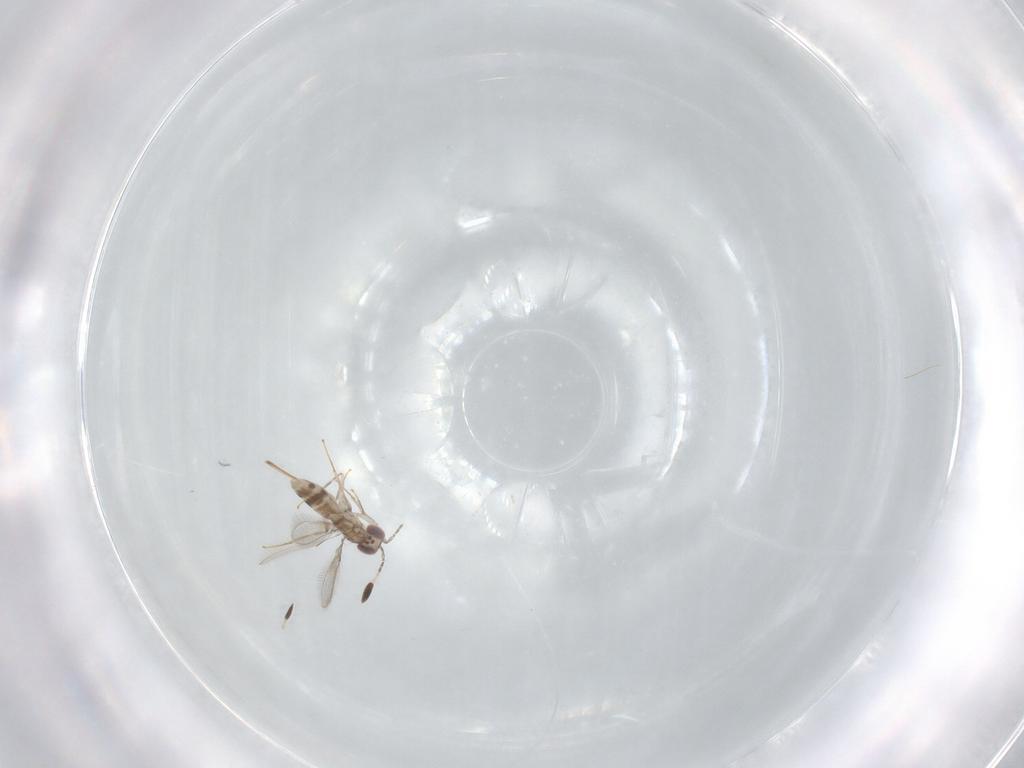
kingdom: Animalia
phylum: Arthropoda
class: Insecta
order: Hymenoptera
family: Mymaridae
